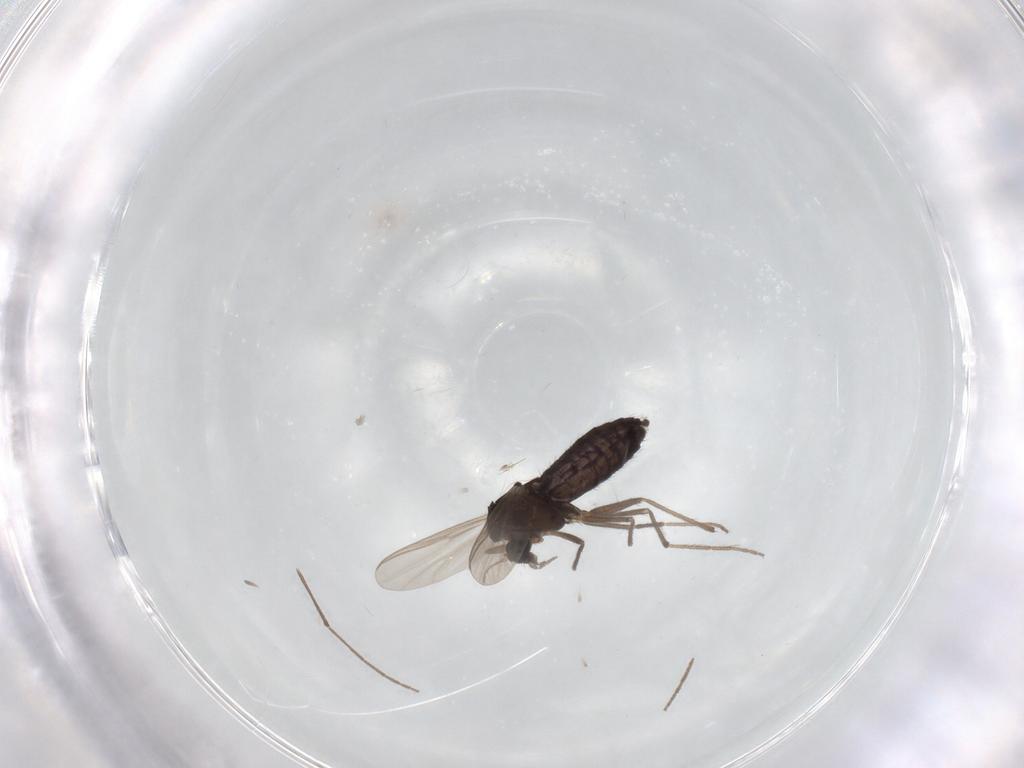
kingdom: Animalia
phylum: Arthropoda
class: Insecta
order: Diptera
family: Chironomidae
